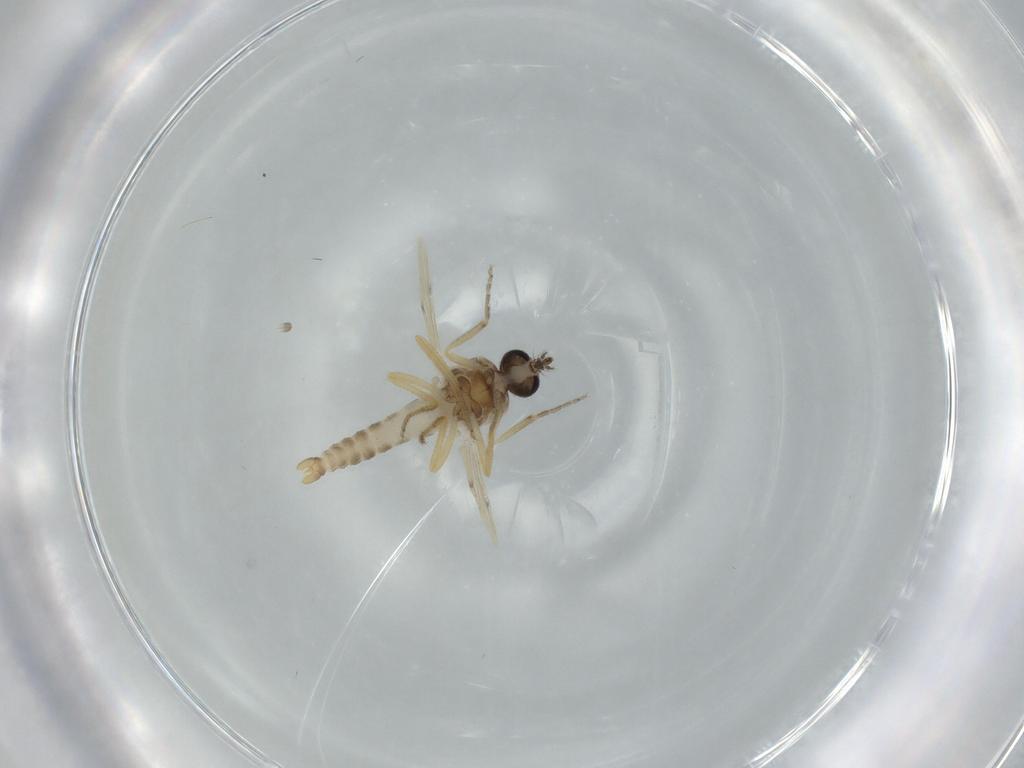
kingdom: Animalia
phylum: Arthropoda
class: Insecta
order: Diptera
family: Ceratopogonidae
